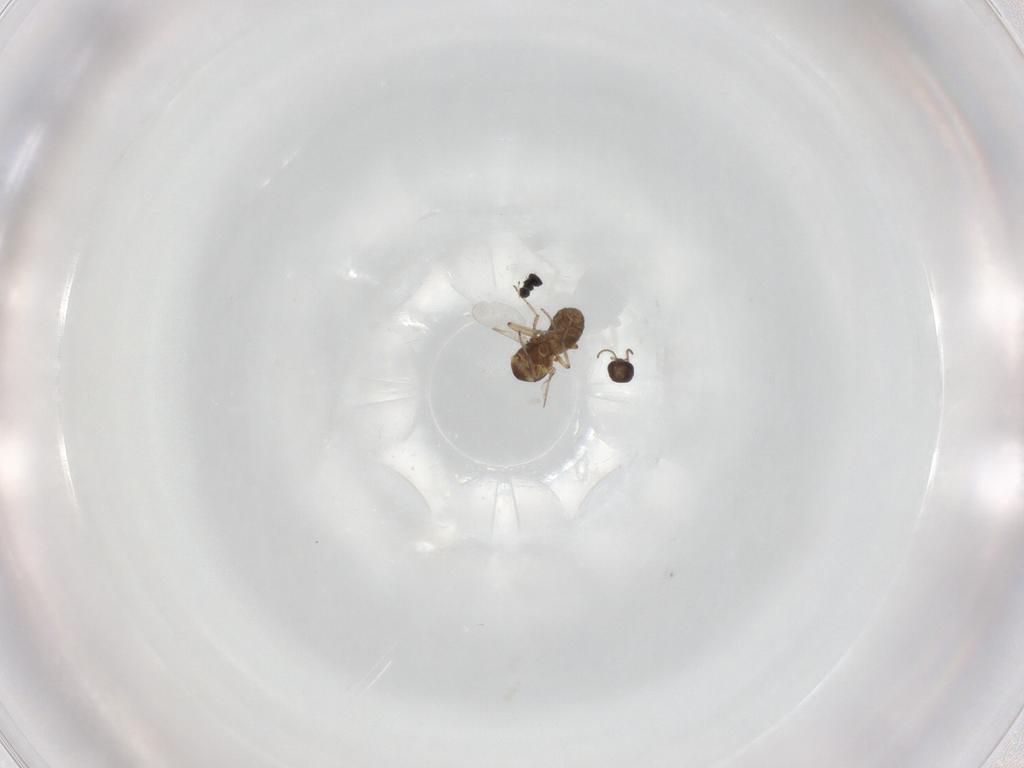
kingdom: Animalia
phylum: Arthropoda
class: Insecta
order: Diptera
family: Ceratopogonidae
